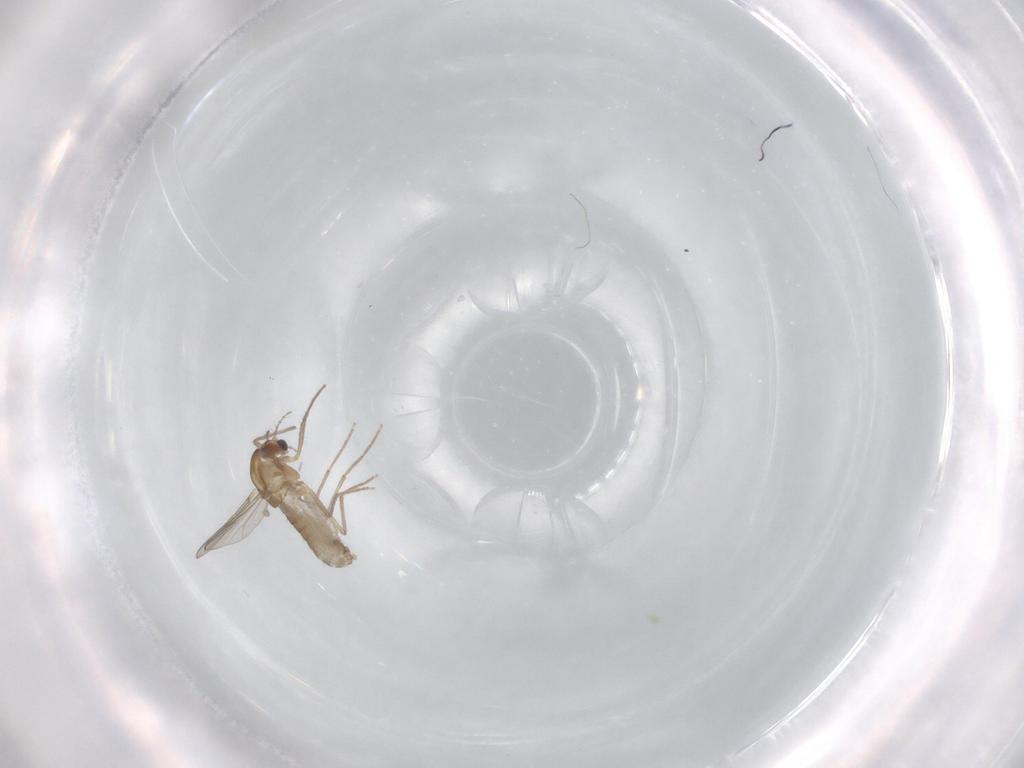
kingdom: Animalia
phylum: Arthropoda
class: Insecta
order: Diptera
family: Chironomidae
